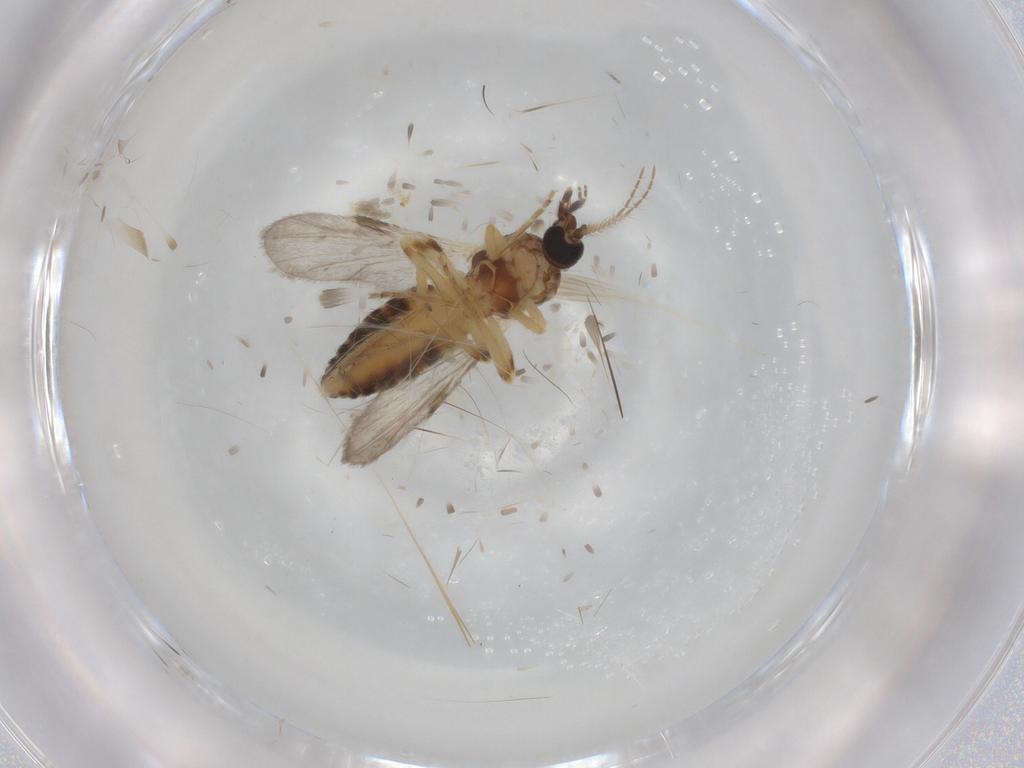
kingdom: Animalia
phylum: Arthropoda
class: Insecta
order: Diptera
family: Ceratopogonidae
